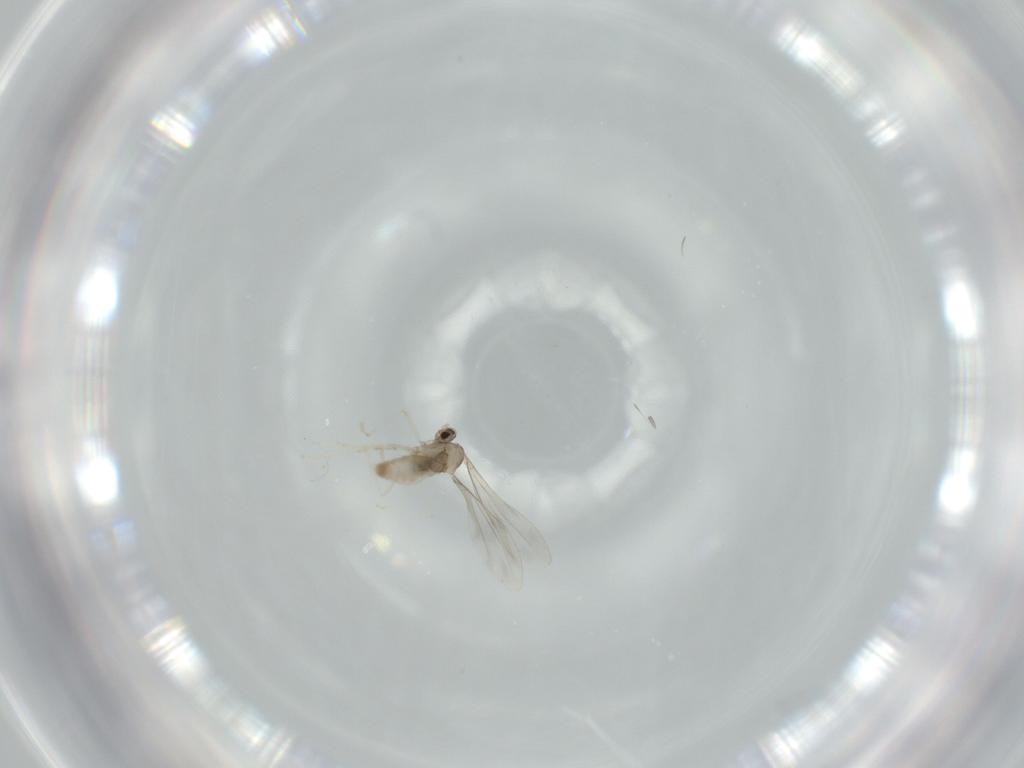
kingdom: Animalia
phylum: Arthropoda
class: Insecta
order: Diptera
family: Cecidomyiidae
